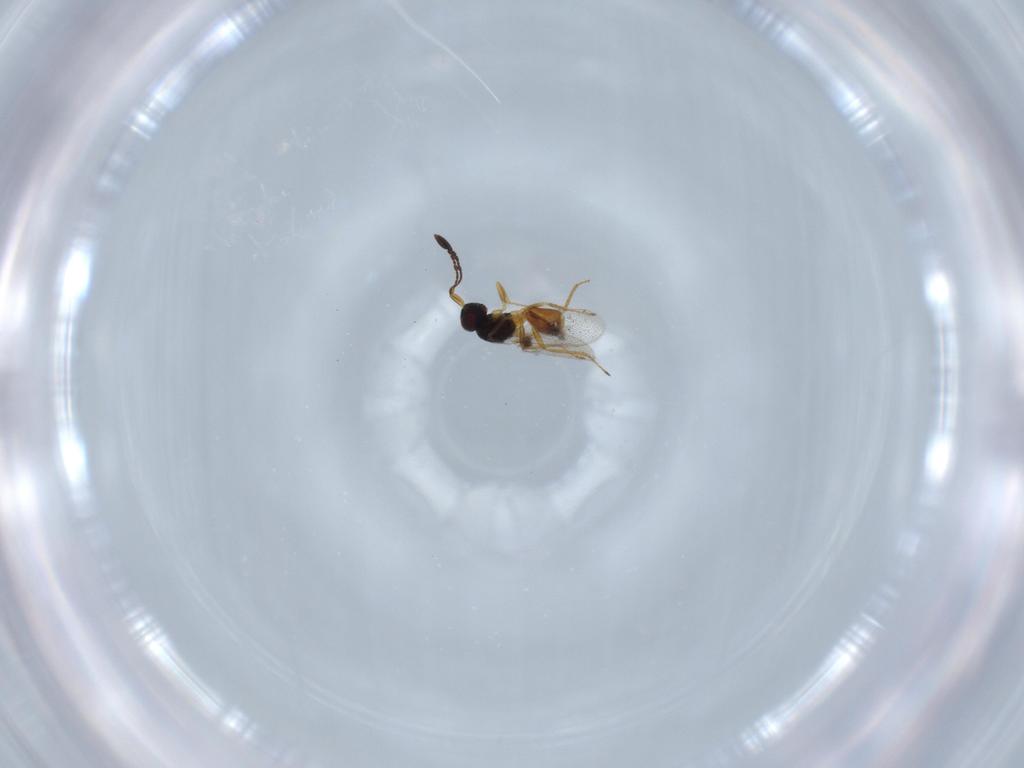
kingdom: Animalia
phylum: Arthropoda
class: Insecta
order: Hymenoptera
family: Mymaridae
